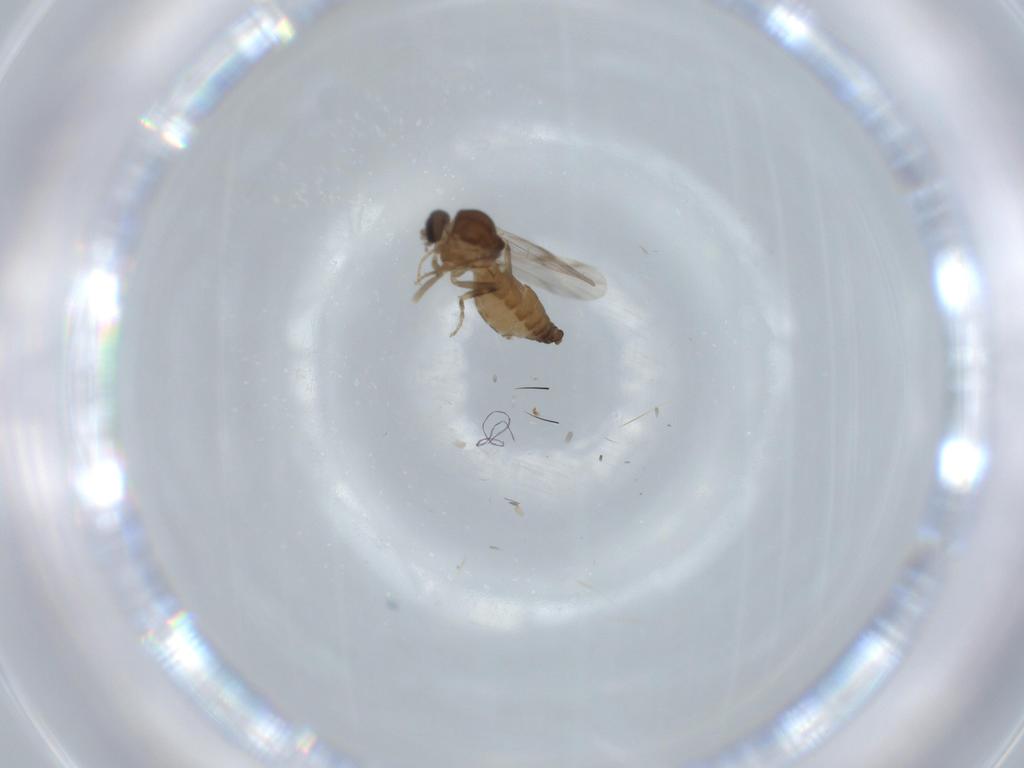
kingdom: Animalia
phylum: Arthropoda
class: Insecta
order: Diptera
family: Ceratopogonidae
